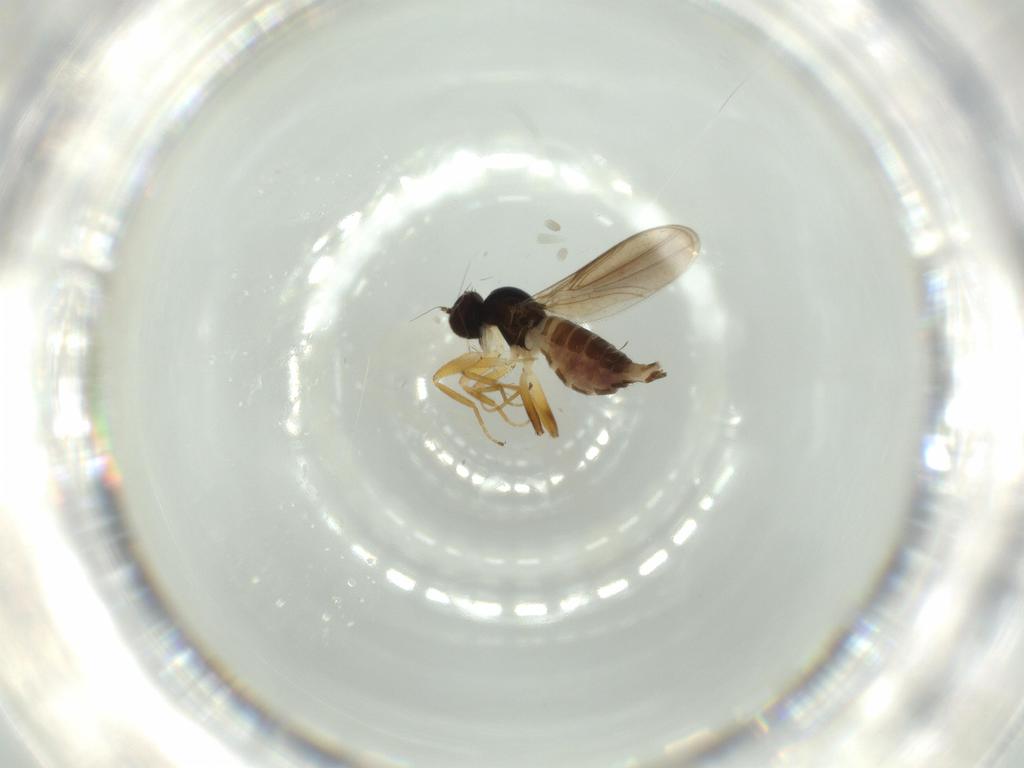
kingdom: Animalia
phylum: Arthropoda
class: Insecta
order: Diptera
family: Hybotidae
